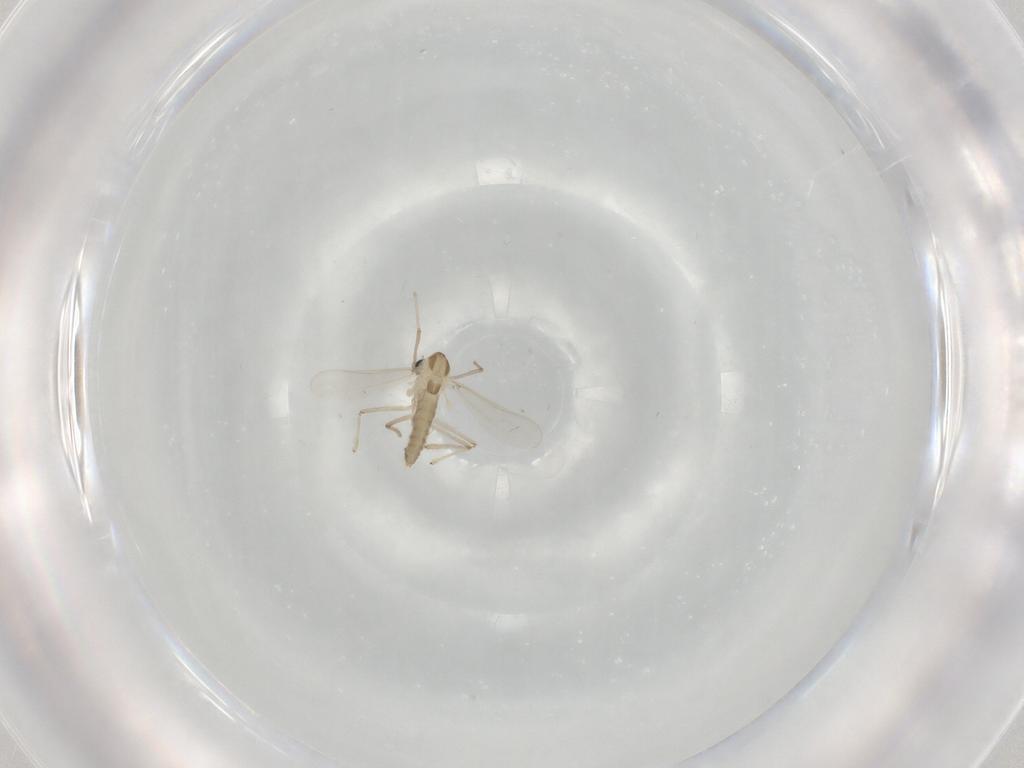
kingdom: Animalia
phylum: Arthropoda
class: Insecta
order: Diptera
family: Chironomidae
